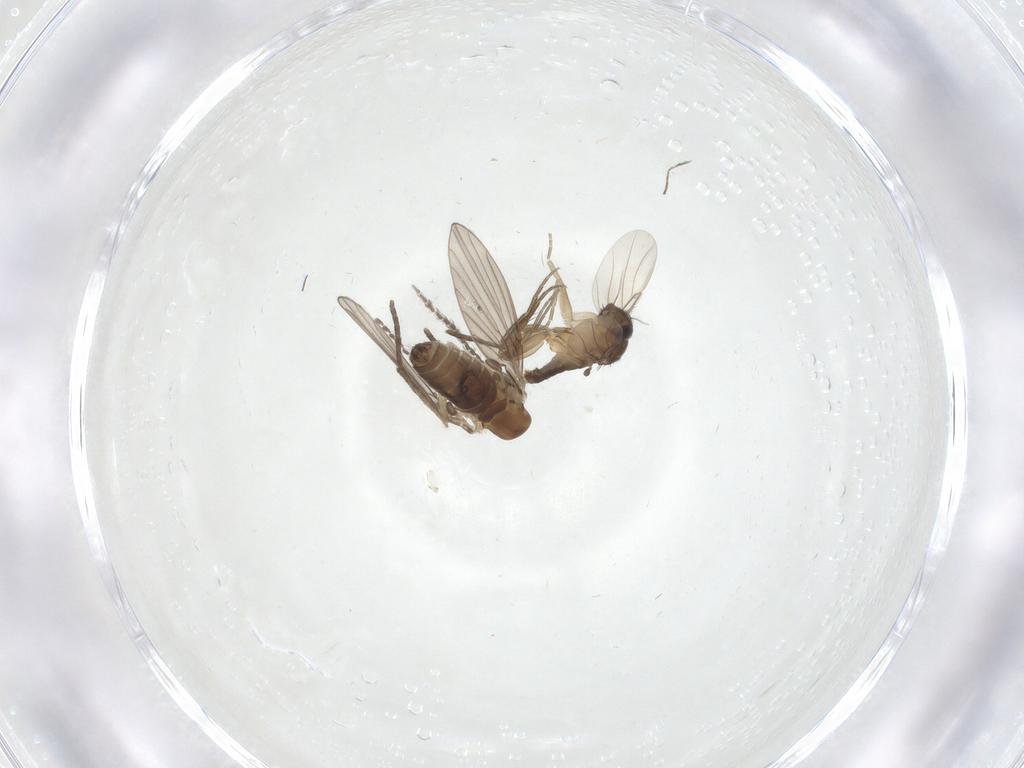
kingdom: Animalia
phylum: Arthropoda
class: Insecta
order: Diptera
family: Phoridae
